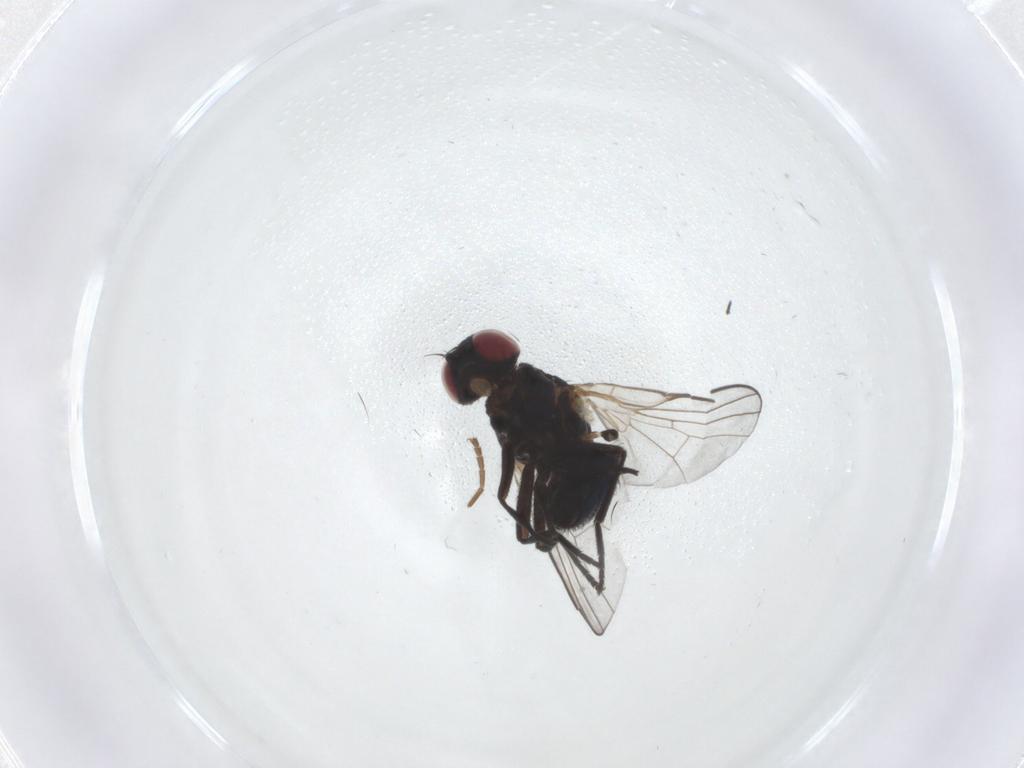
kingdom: Animalia
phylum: Arthropoda
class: Insecta
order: Diptera
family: Agromyzidae
